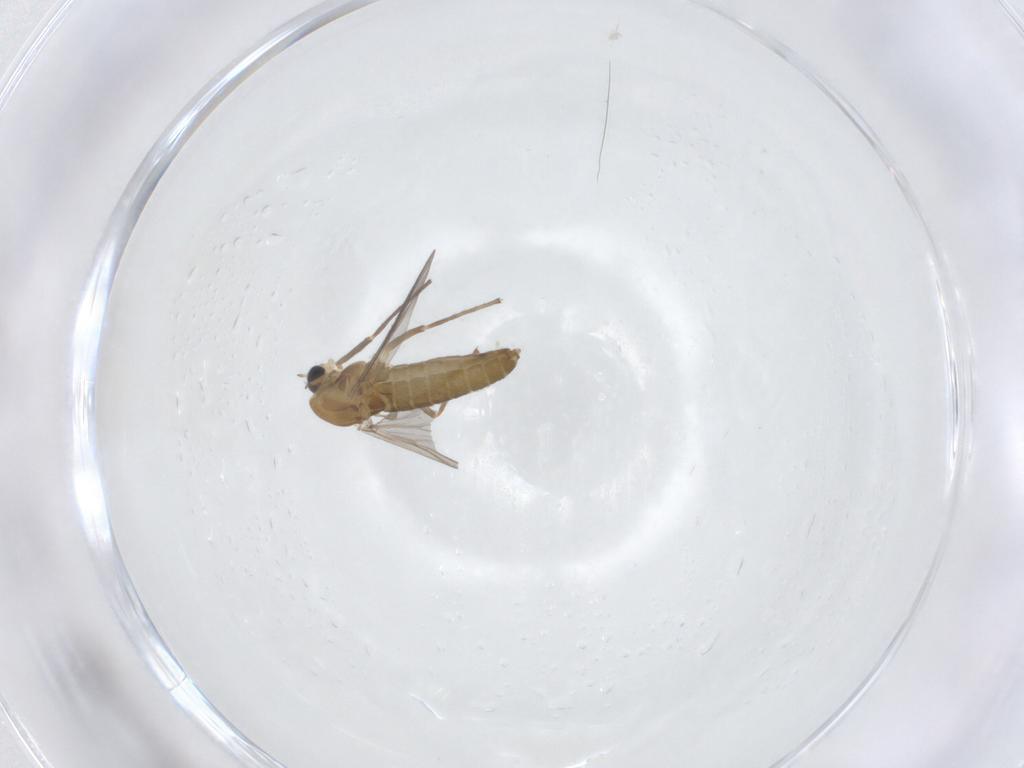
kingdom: Animalia
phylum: Arthropoda
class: Insecta
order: Diptera
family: Chironomidae
